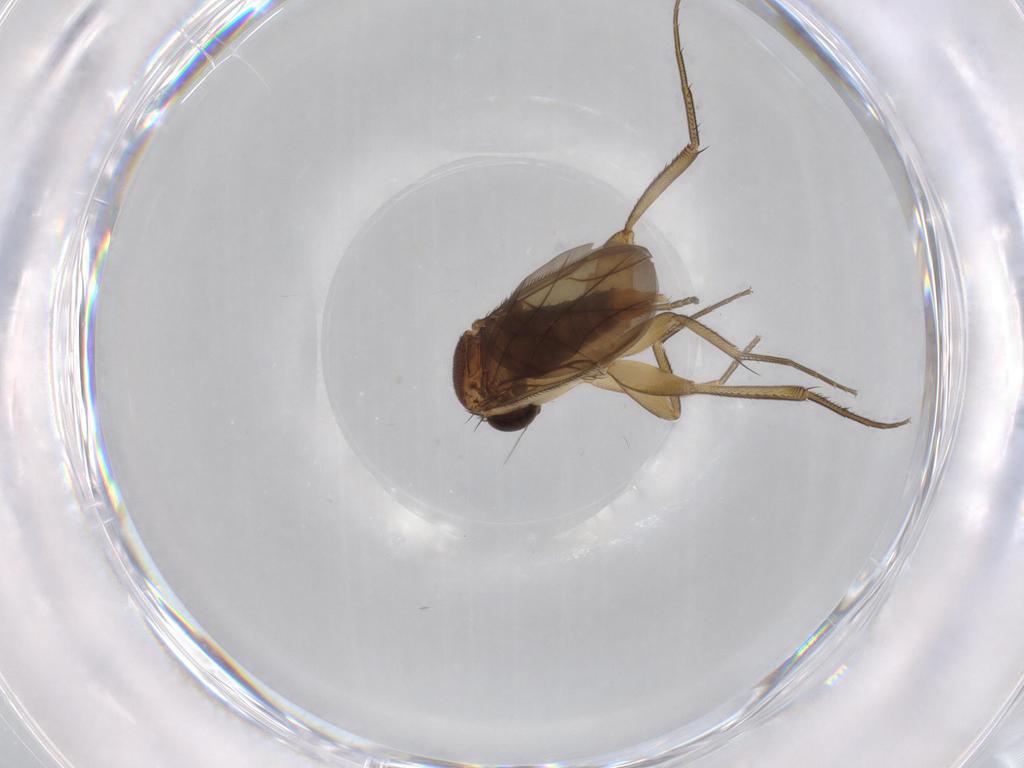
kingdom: Animalia
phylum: Arthropoda
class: Insecta
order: Diptera
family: Phoridae
